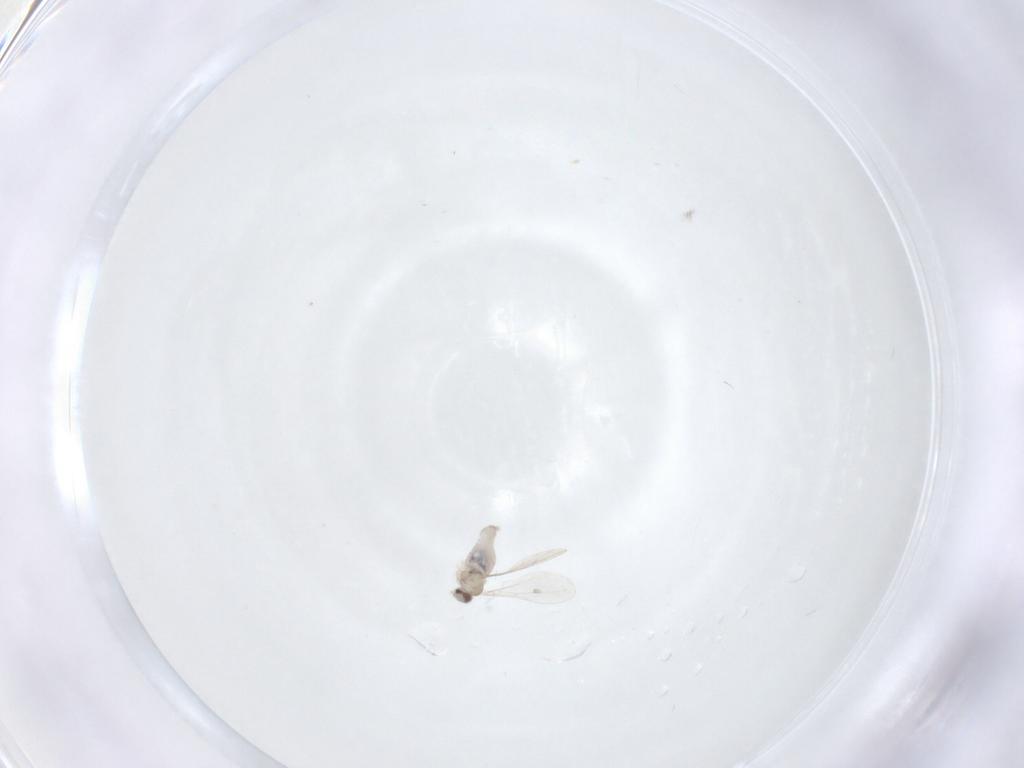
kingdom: Animalia
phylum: Arthropoda
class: Insecta
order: Diptera
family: Cecidomyiidae
